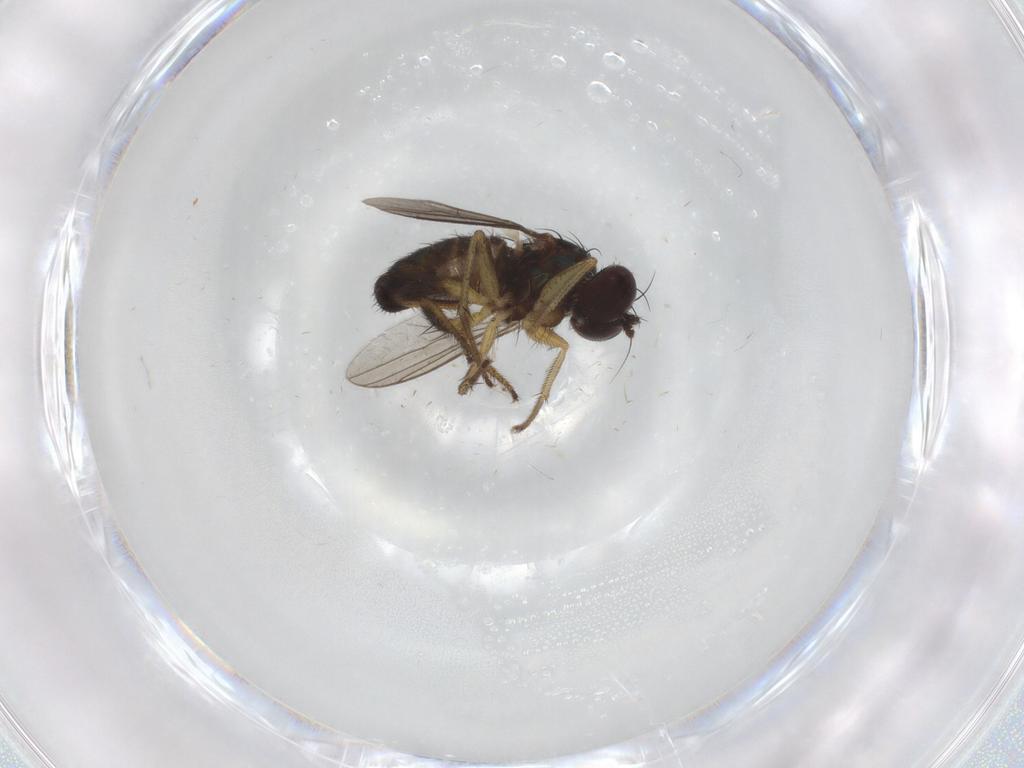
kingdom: Animalia
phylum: Arthropoda
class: Insecta
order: Diptera
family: Dolichopodidae
